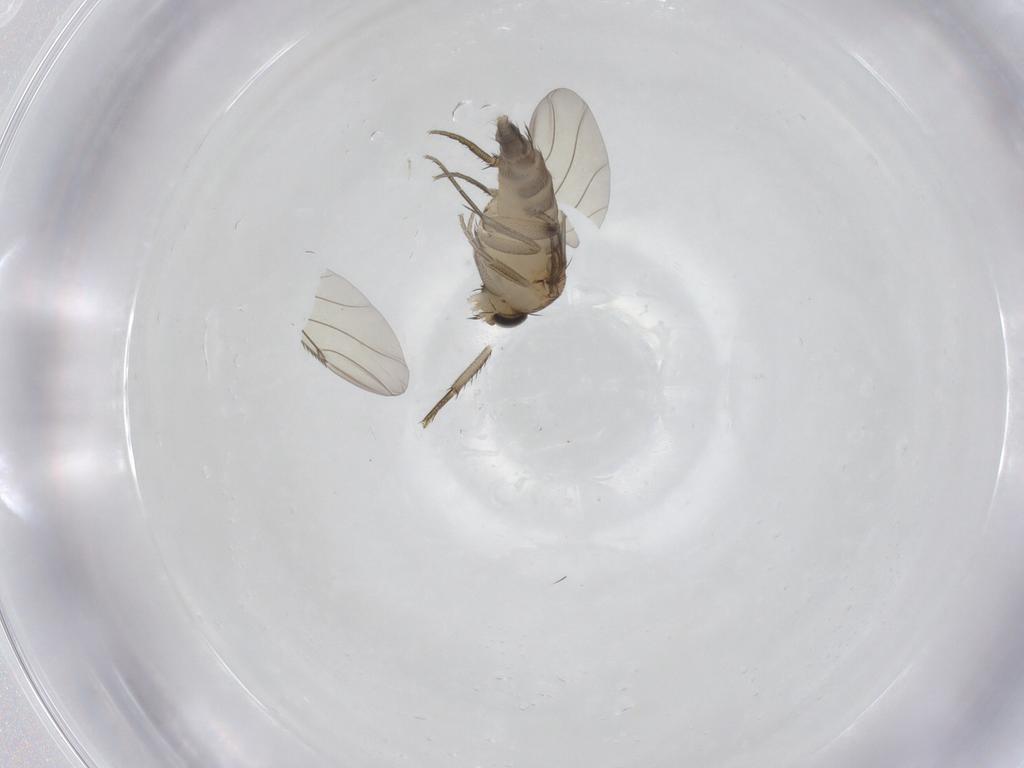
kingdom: Animalia
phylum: Arthropoda
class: Insecta
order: Diptera
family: Phoridae
